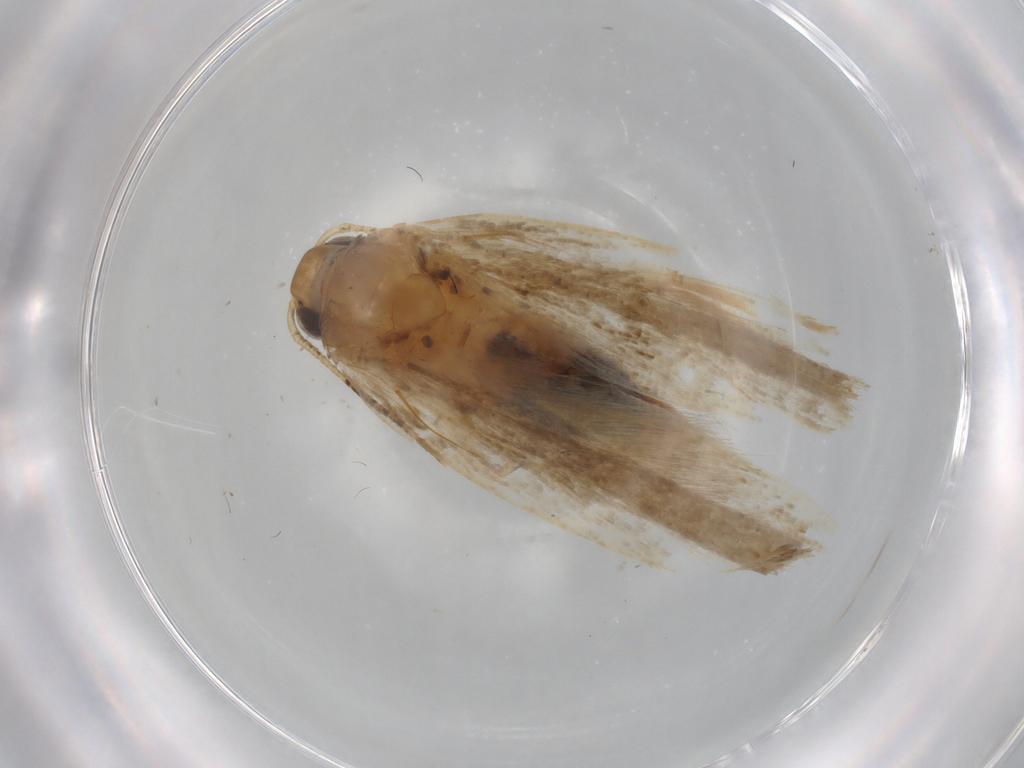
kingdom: Animalia
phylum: Arthropoda
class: Insecta
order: Lepidoptera
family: Gelechiidae
